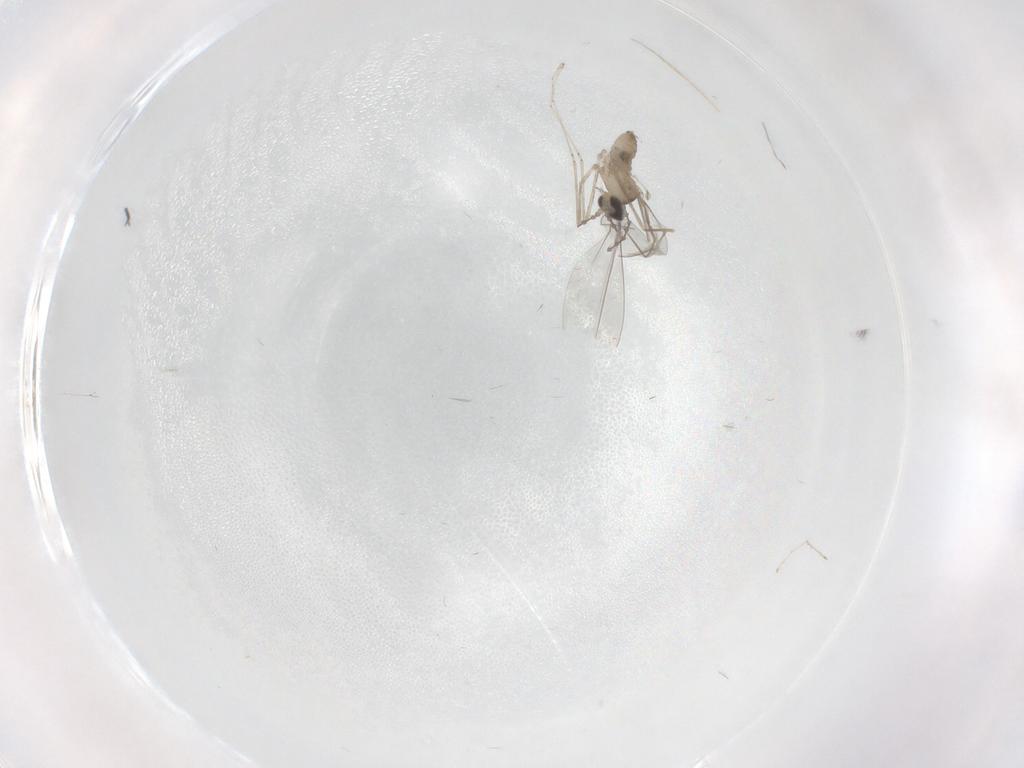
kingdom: Animalia
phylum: Arthropoda
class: Insecta
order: Diptera
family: Cecidomyiidae
